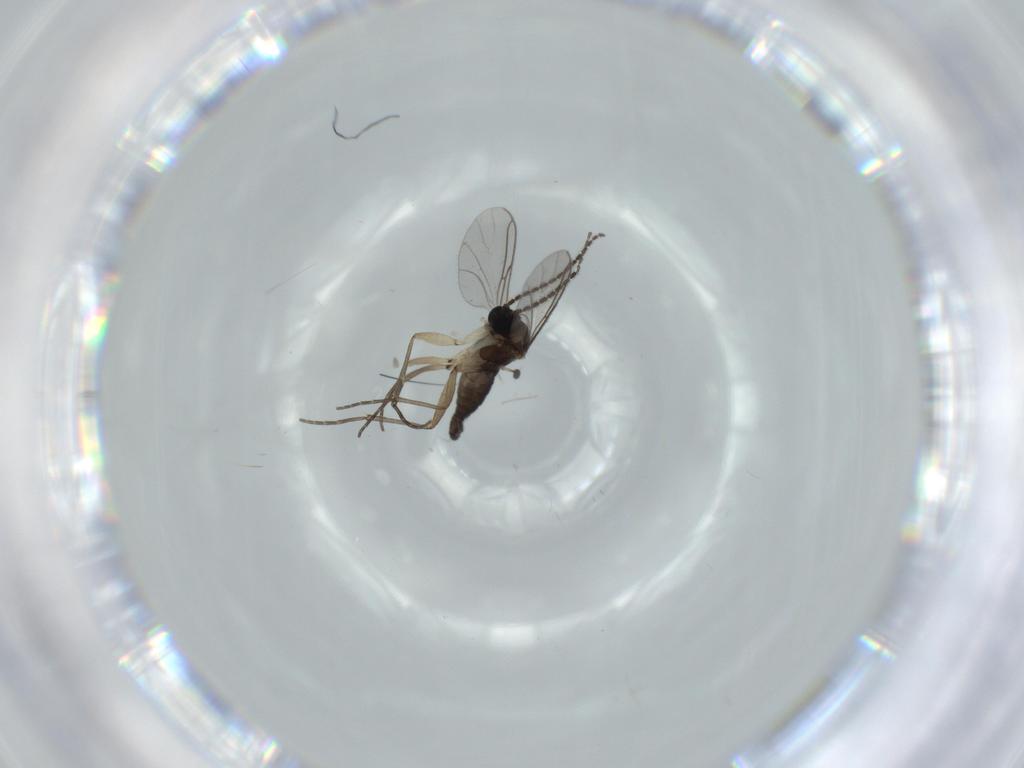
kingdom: Animalia
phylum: Arthropoda
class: Insecta
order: Diptera
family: Sciaridae
